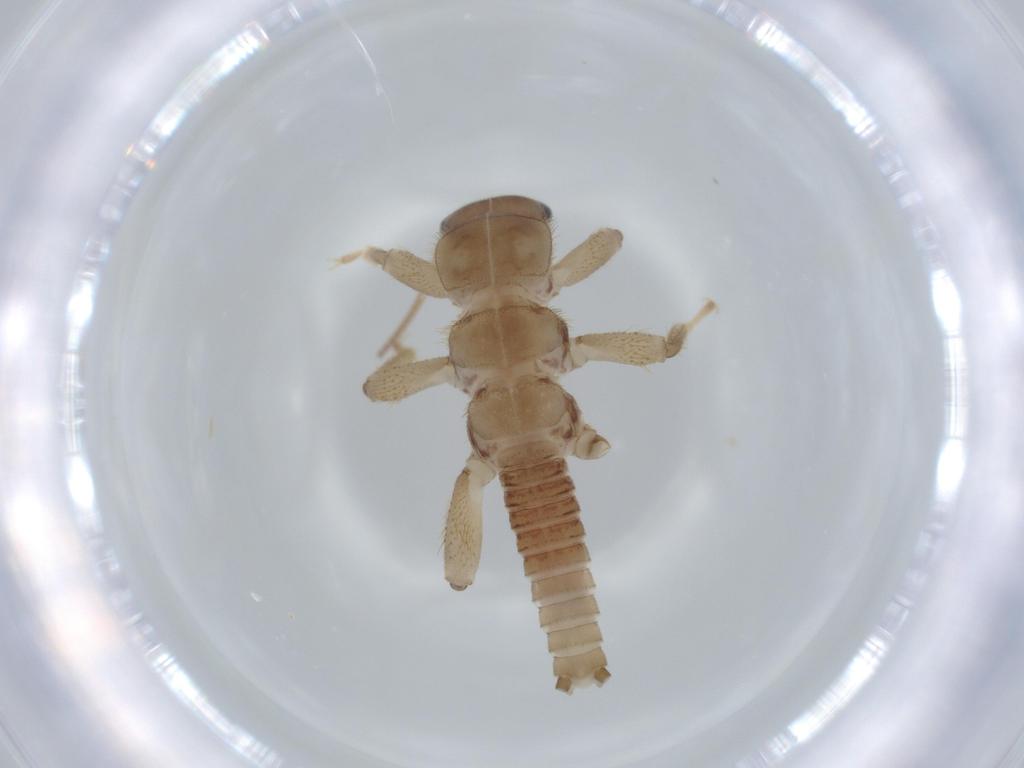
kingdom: Animalia
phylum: Arthropoda
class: Insecta
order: Plecoptera
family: Nemouridae
